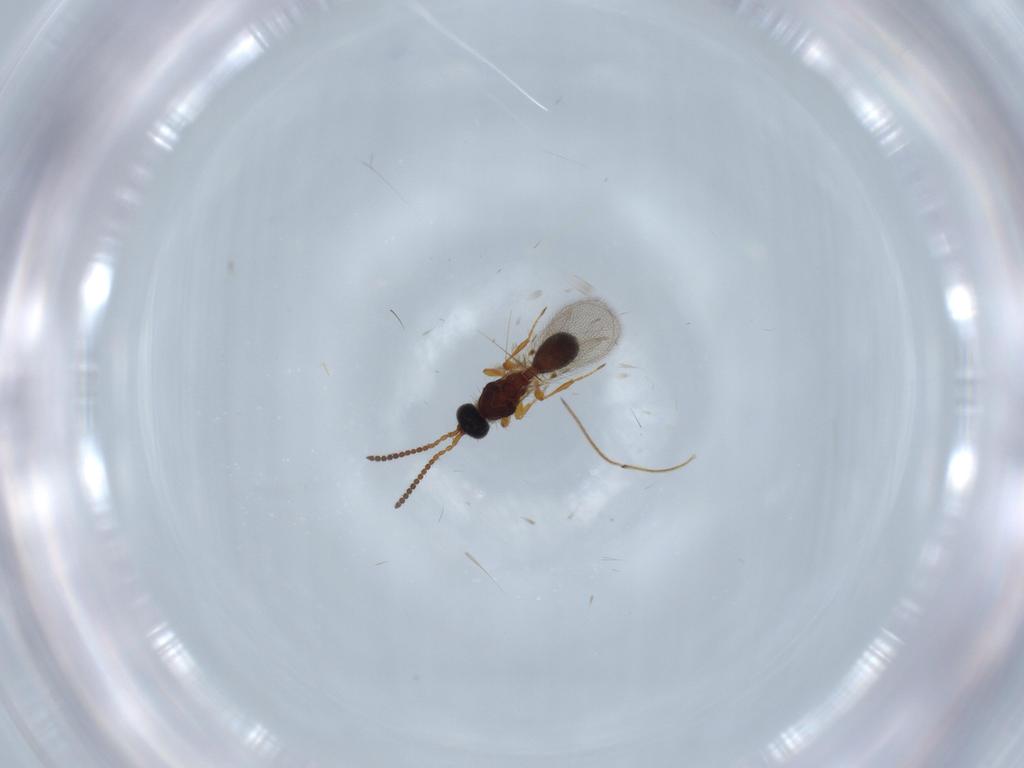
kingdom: Animalia
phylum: Arthropoda
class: Insecta
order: Hymenoptera
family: Diapriidae
